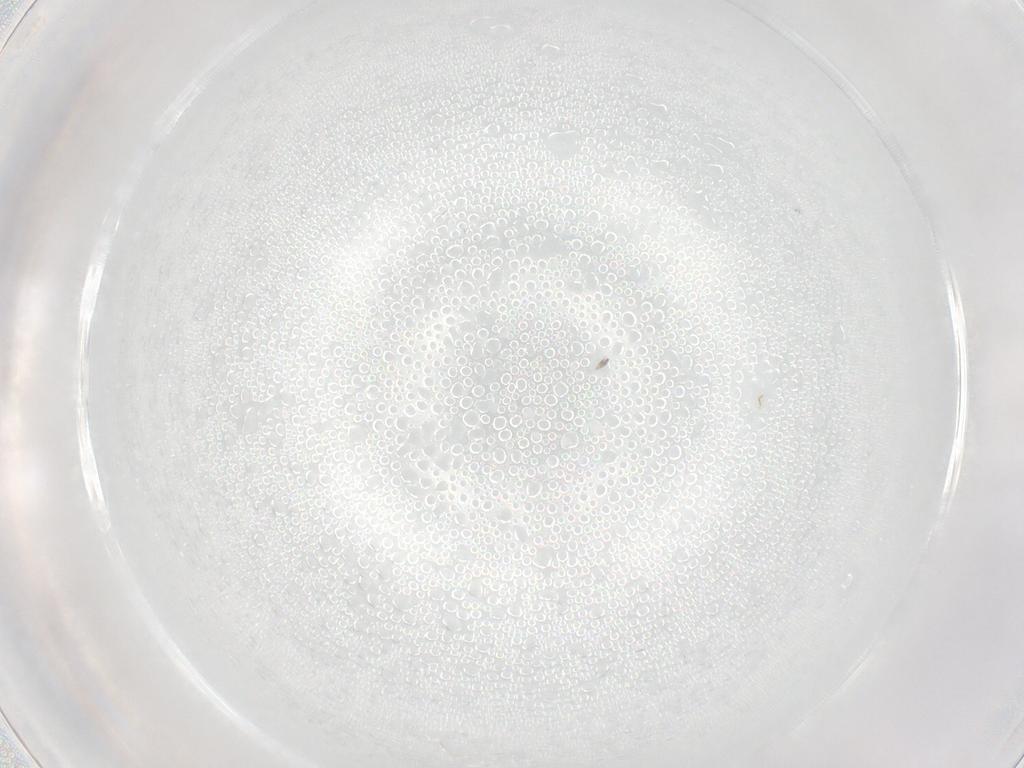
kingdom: Animalia
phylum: Arthropoda
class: Insecta
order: Diptera
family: Chironomidae
